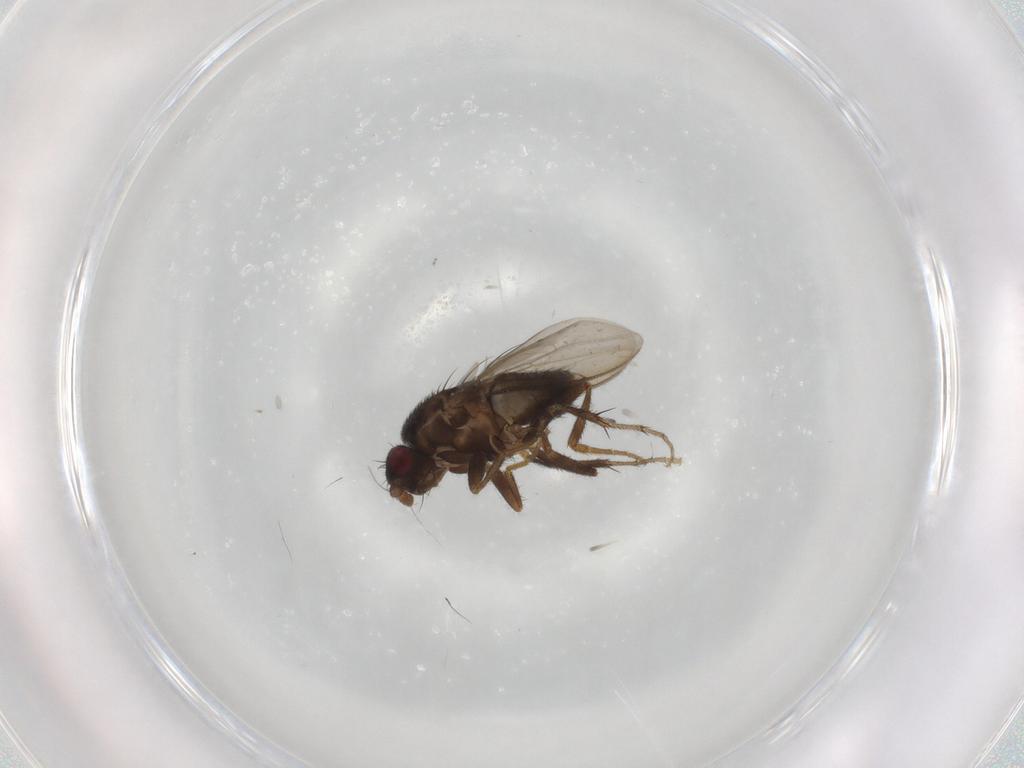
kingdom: Animalia
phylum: Arthropoda
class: Insecta
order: Diptera
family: Sphaeroceridae
